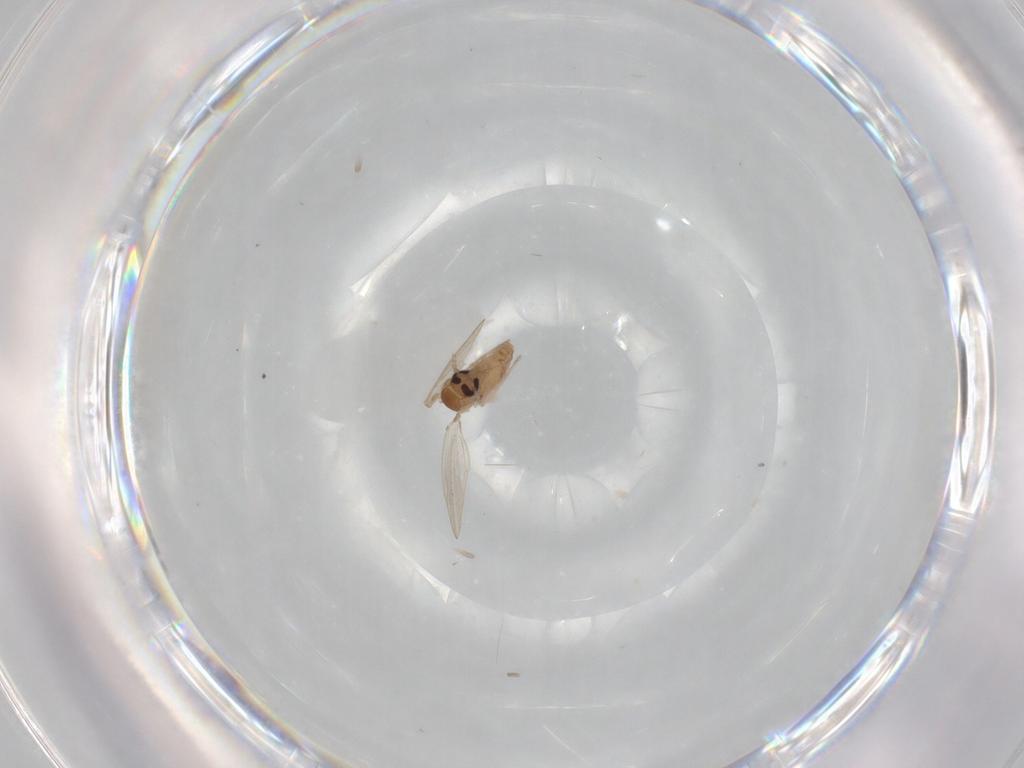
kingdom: Animalia
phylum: Arthropoda
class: Insecta
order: Diptera
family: Psychodidae
